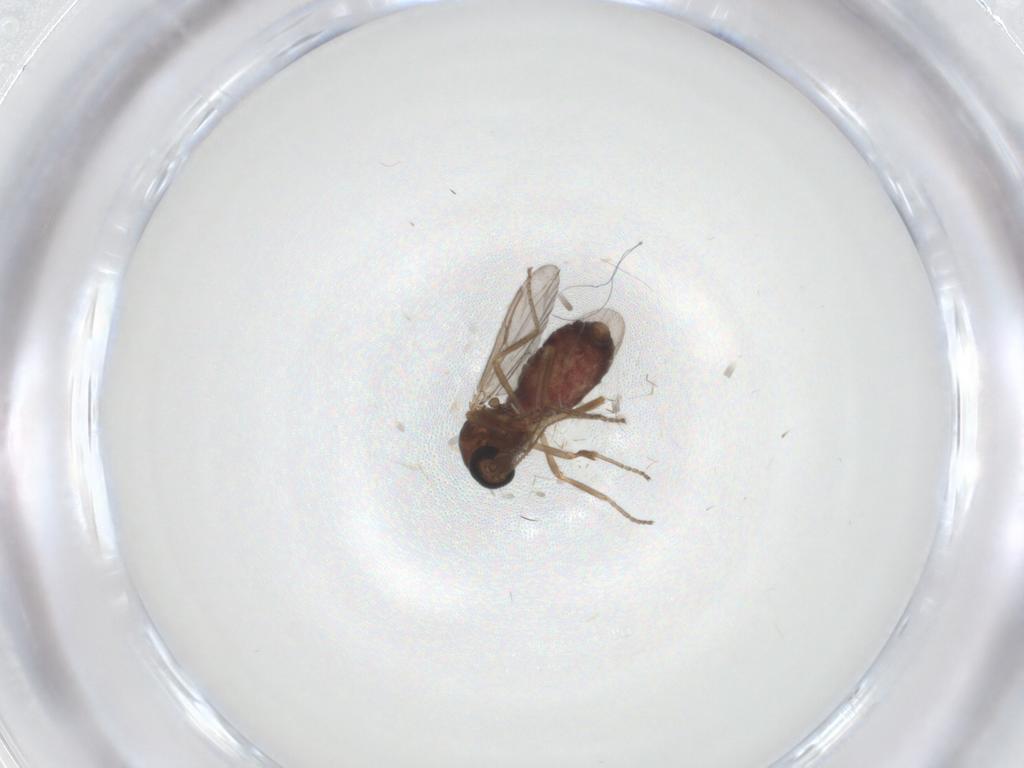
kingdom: Animalia
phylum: Arthropoda
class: Insecta
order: Diptera
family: Ceratopogonidae
